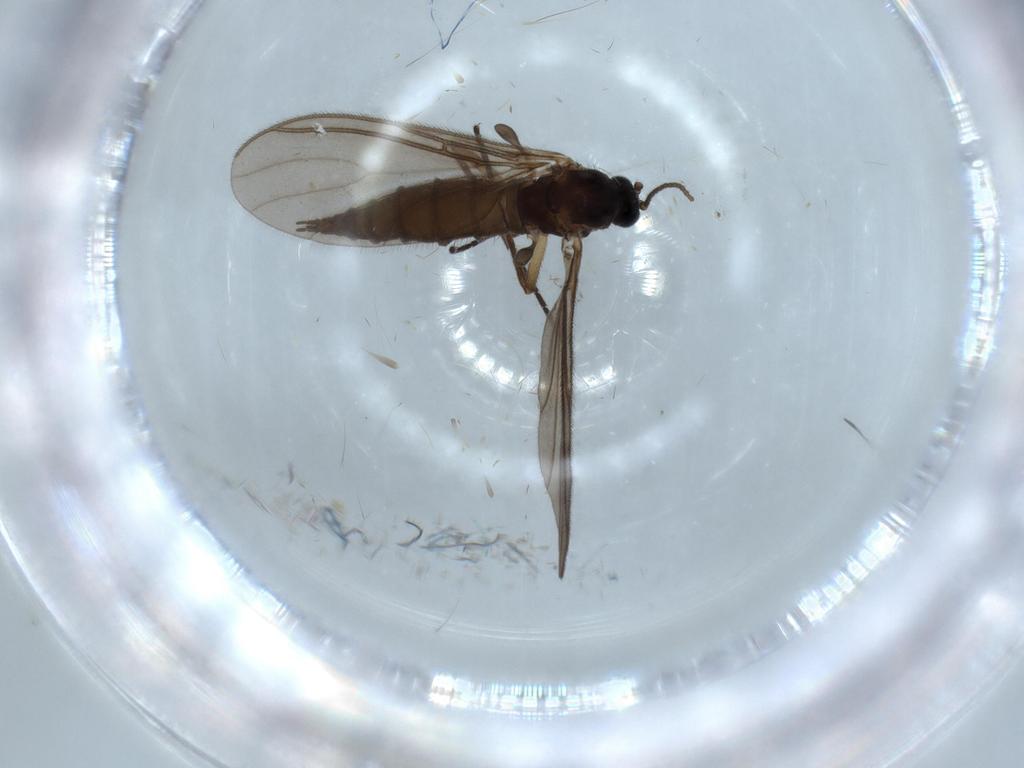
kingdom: Animalia
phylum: Arthropoda
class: Insecta
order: Diptera
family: Sciaridae
